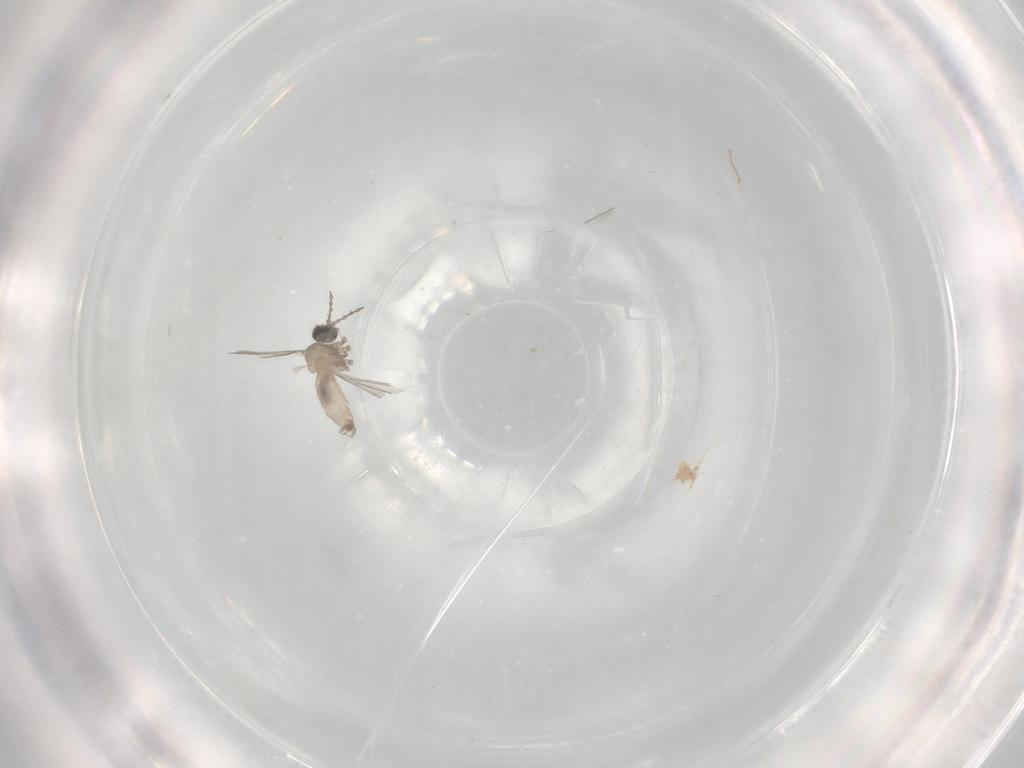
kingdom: Animalia
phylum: Arthropoda
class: Insecta
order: Diptera
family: Cecidomyiidae
